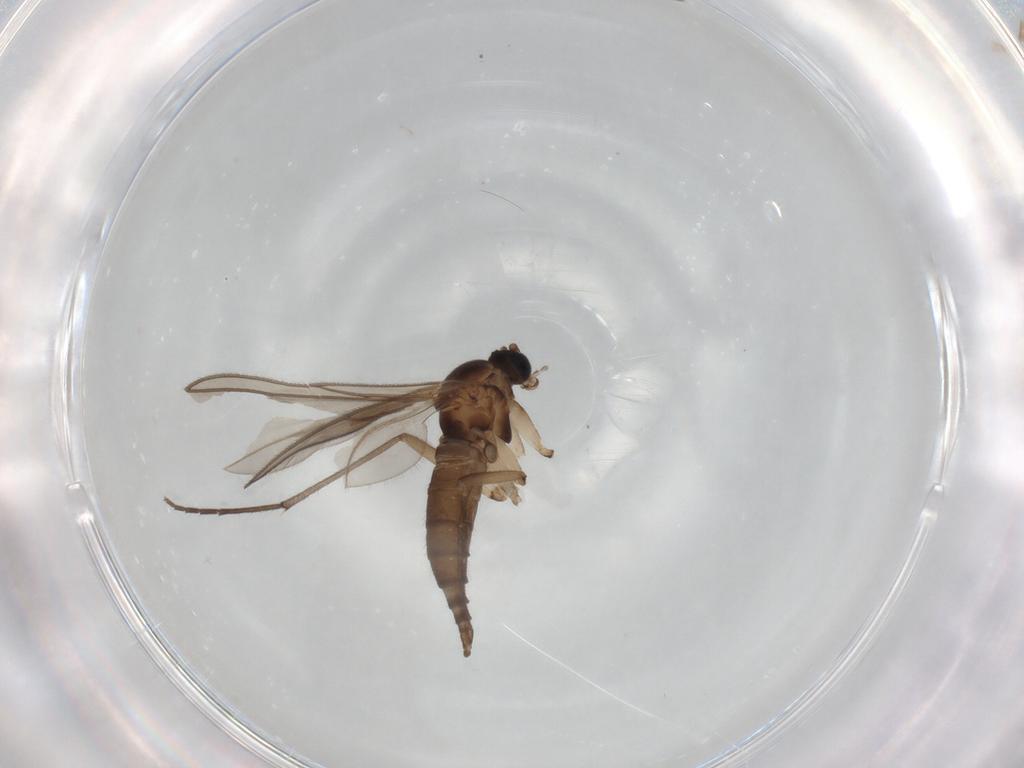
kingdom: Animalia
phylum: Arthropoda
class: Insecta
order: Diptera
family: Sciaridae
